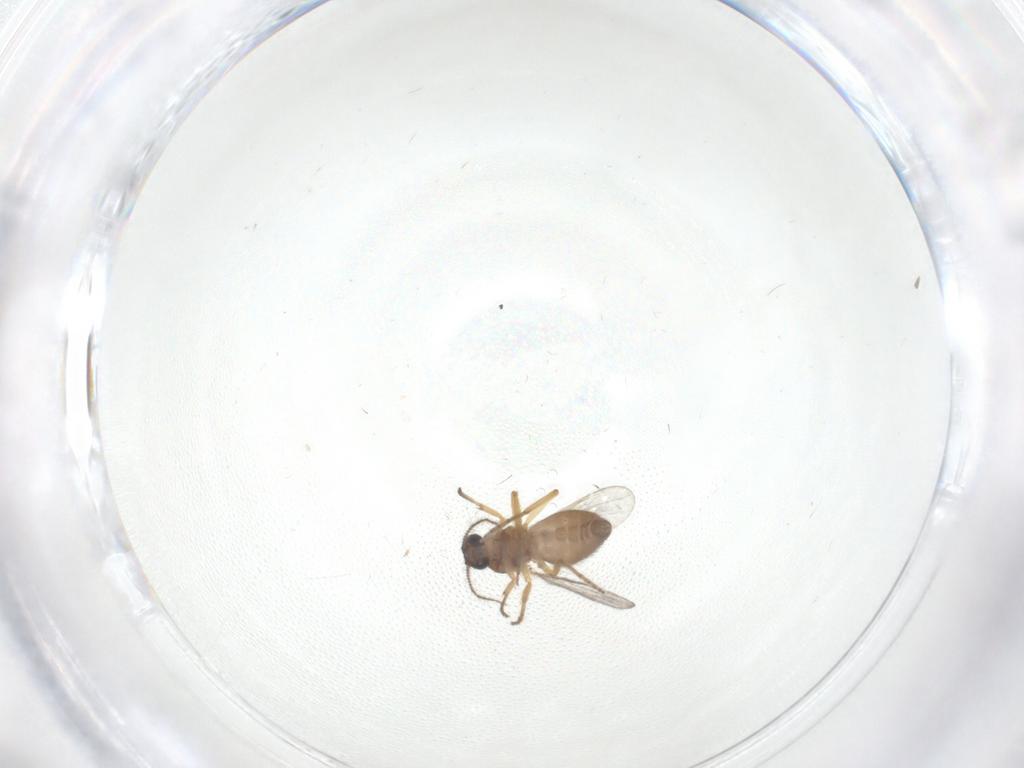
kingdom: Animalia
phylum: Arthropoda
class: Insecta
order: Diptera
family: Ceratopogonidae
